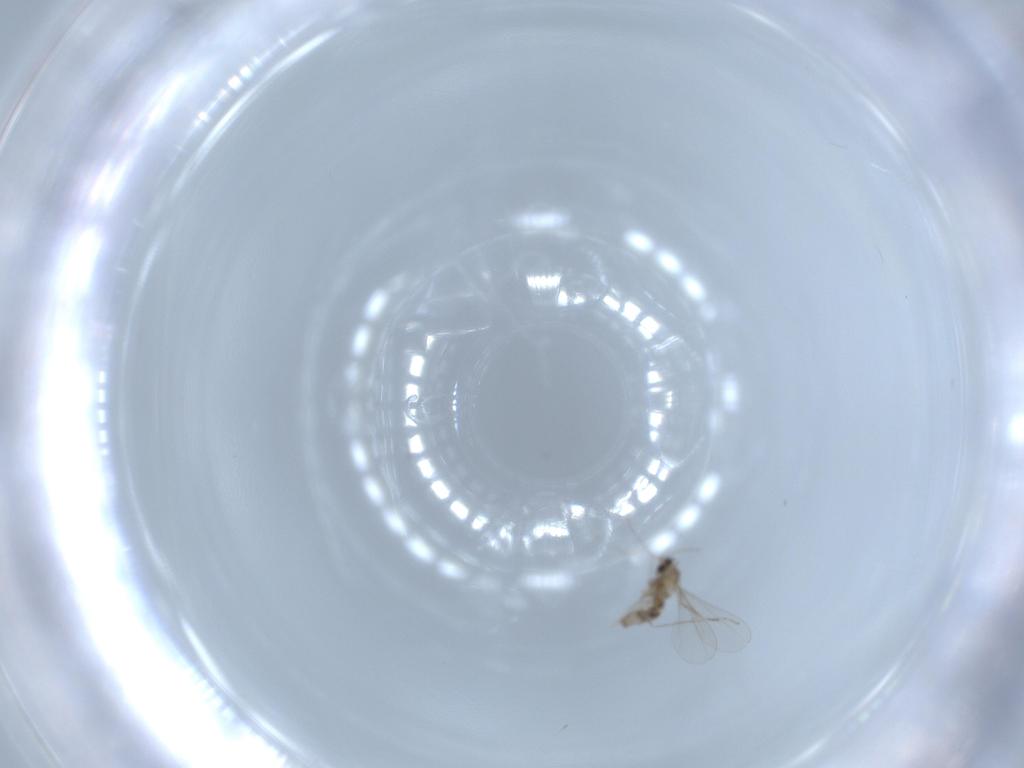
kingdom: Animalia
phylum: Arthropoda
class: Insecta
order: Diptera
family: Cecidomyiidae
